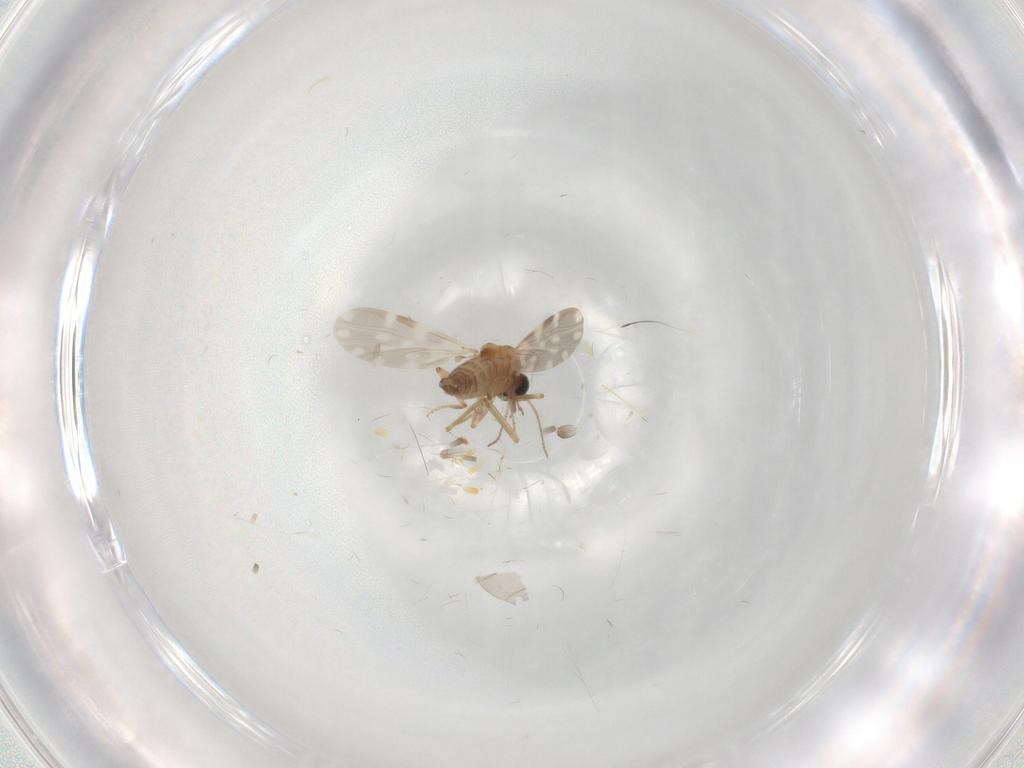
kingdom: Animalia
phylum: Arthropoda
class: Insecta
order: Diptera
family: Ceratopogonidae
